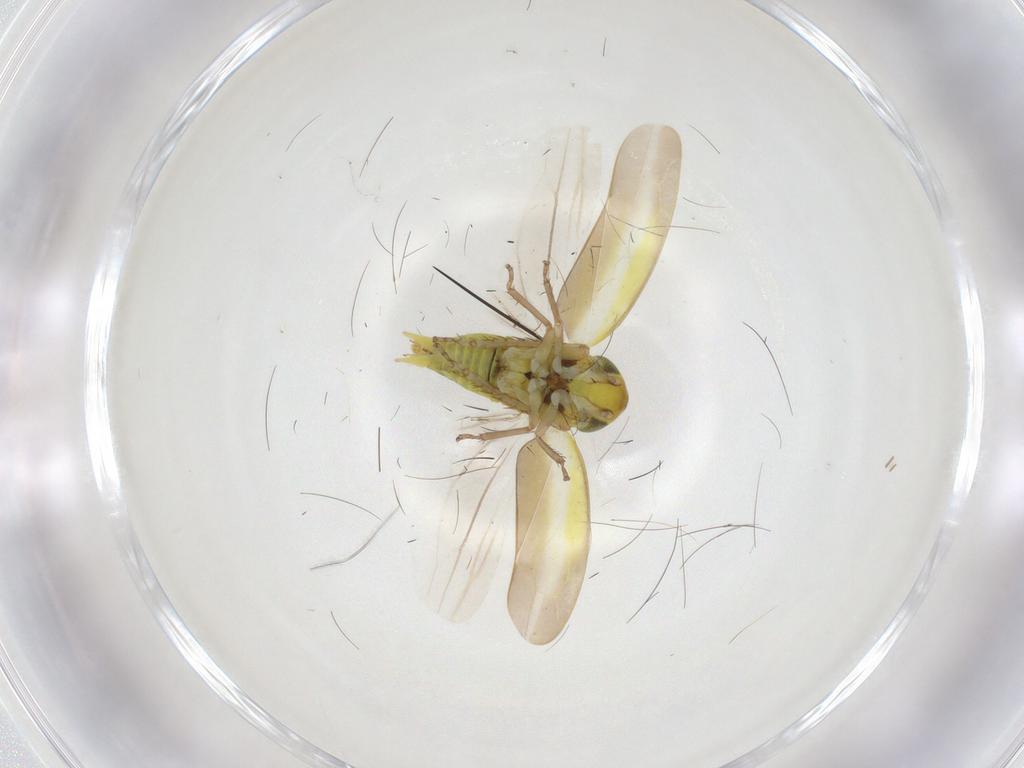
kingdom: Animalia
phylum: Arthropoda
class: Insecta
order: Hemiptera
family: Cicadellidae
